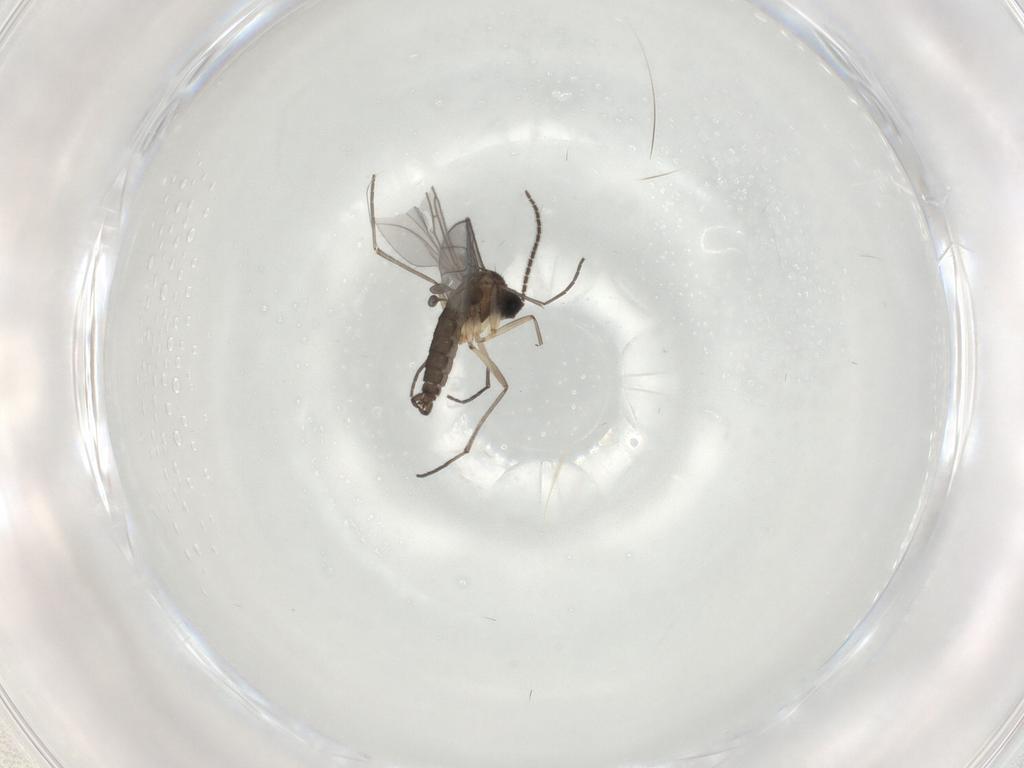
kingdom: Animalia
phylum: Arthropoda
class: Insecta
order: Diptera
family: Sciaridae
